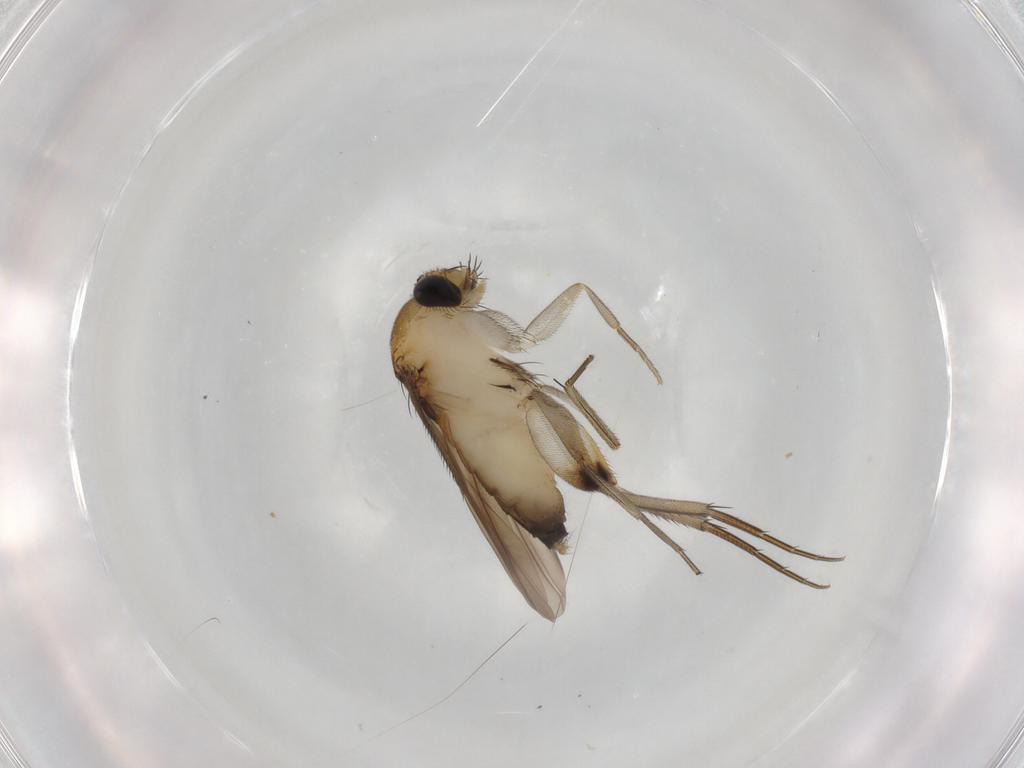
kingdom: Animalia
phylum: Arthropoda
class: Insecta
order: Diptera
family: Phoridae
